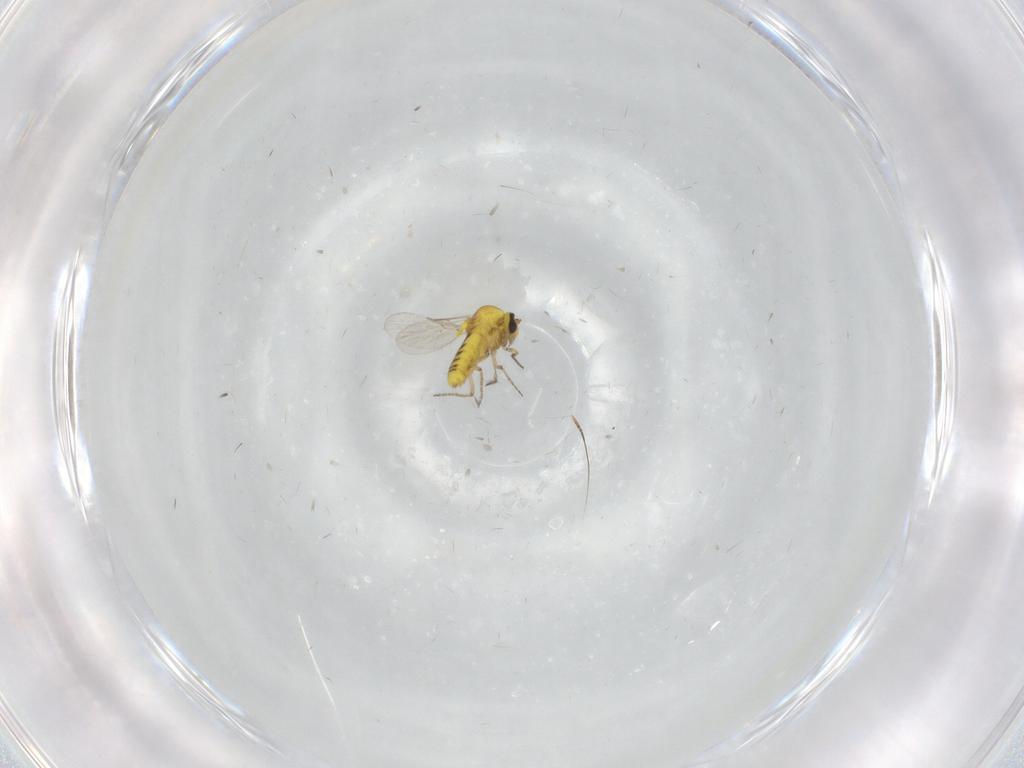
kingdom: Animalia
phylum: Arthropoda
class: Insecta
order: Diptera
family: Ceratopogonidae
